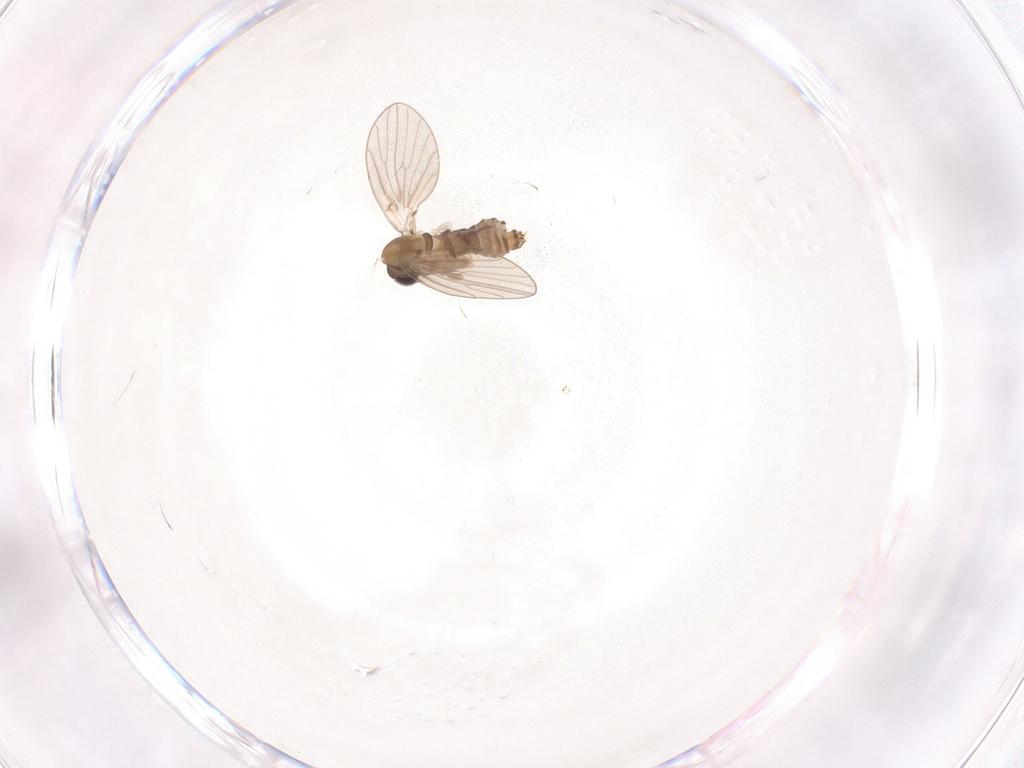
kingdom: Animalia
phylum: Arthropoda
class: Insecta
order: Diptera
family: Psychodidae
